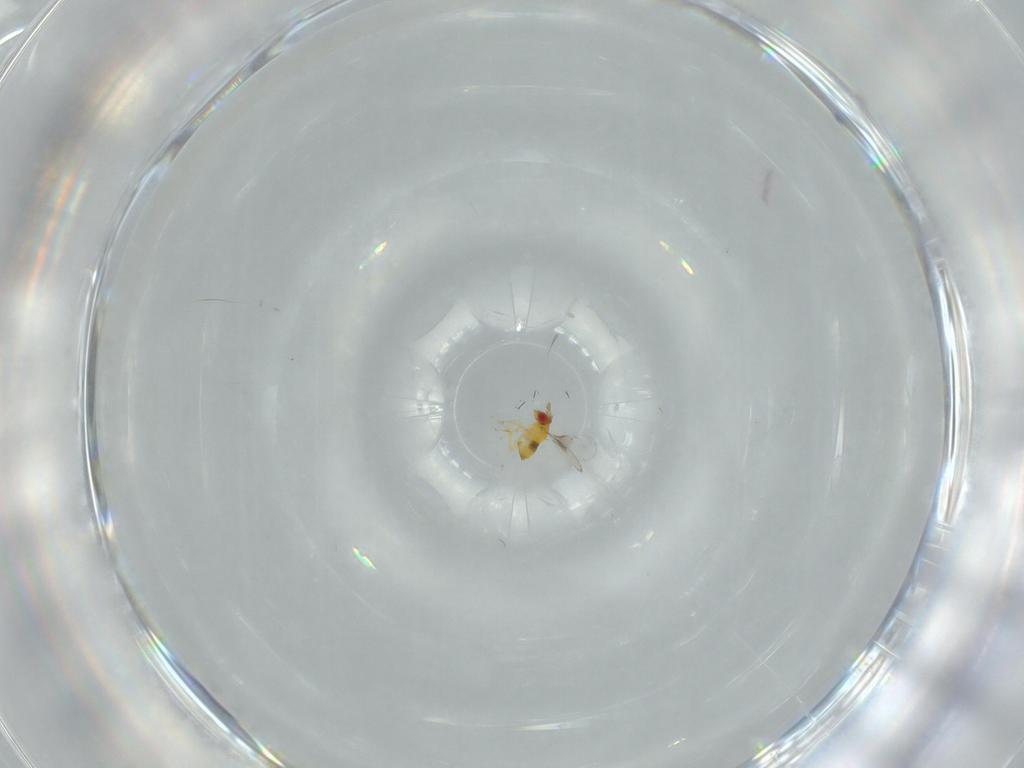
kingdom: Animalia
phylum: Arthropoda
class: Insecta
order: Hymenoptera
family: Trichogrammatidae
